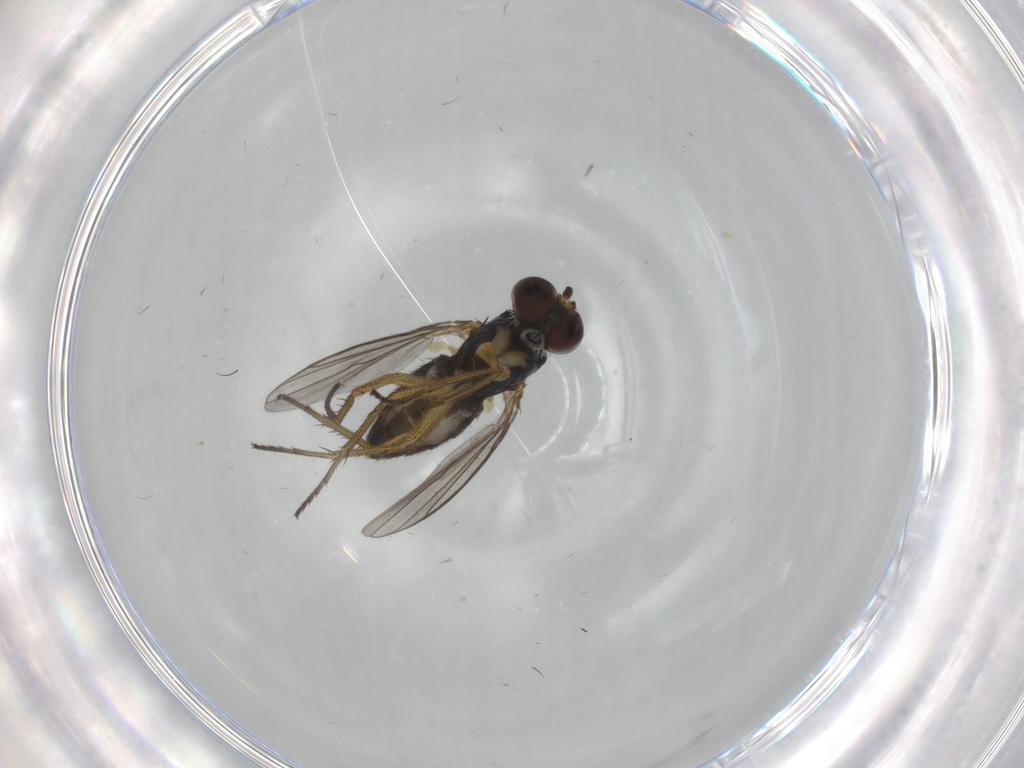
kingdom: Animalia
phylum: Arthropoda
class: Insecta
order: Diptera
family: Dolichopodidae
